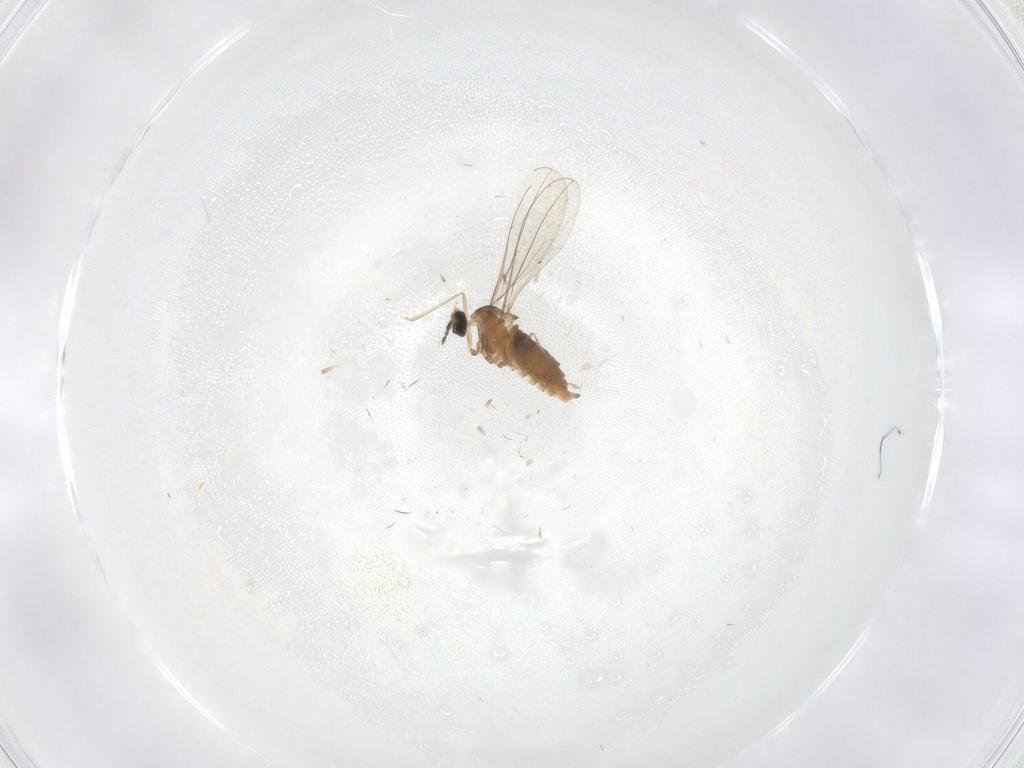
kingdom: Animalia
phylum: Arthropoda
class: Insecta
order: Diptera
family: Cecidomyiidae
